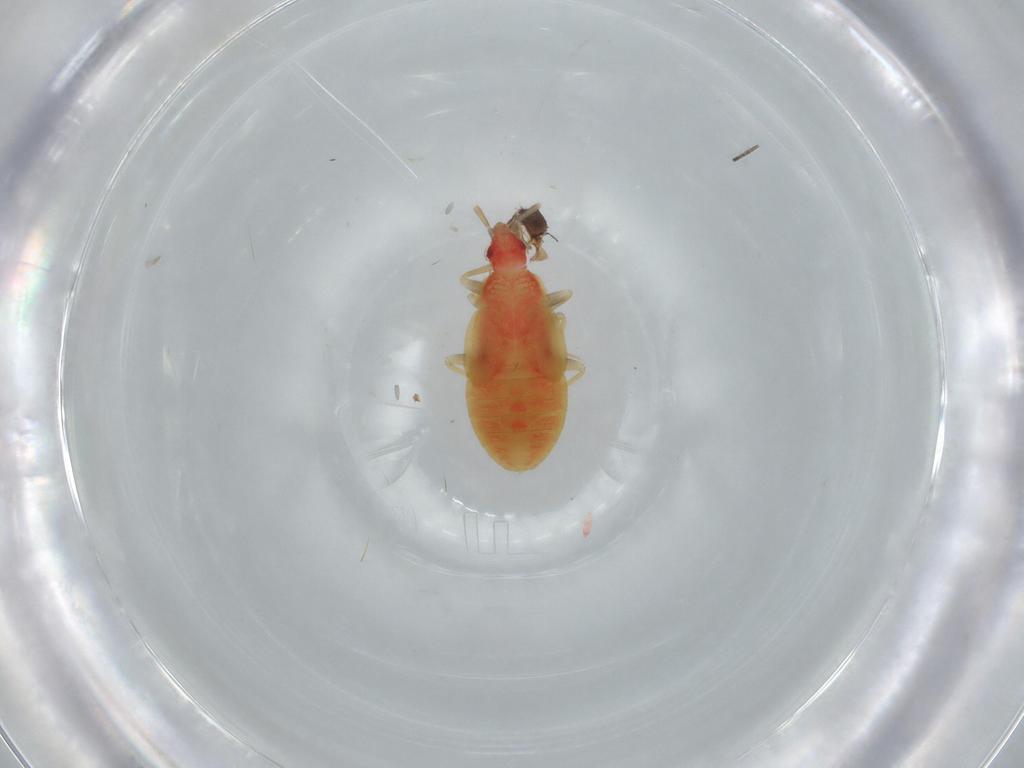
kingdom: Animalia
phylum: Arthropoda
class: Insecta
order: Hemiptera
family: Anthocoridae
